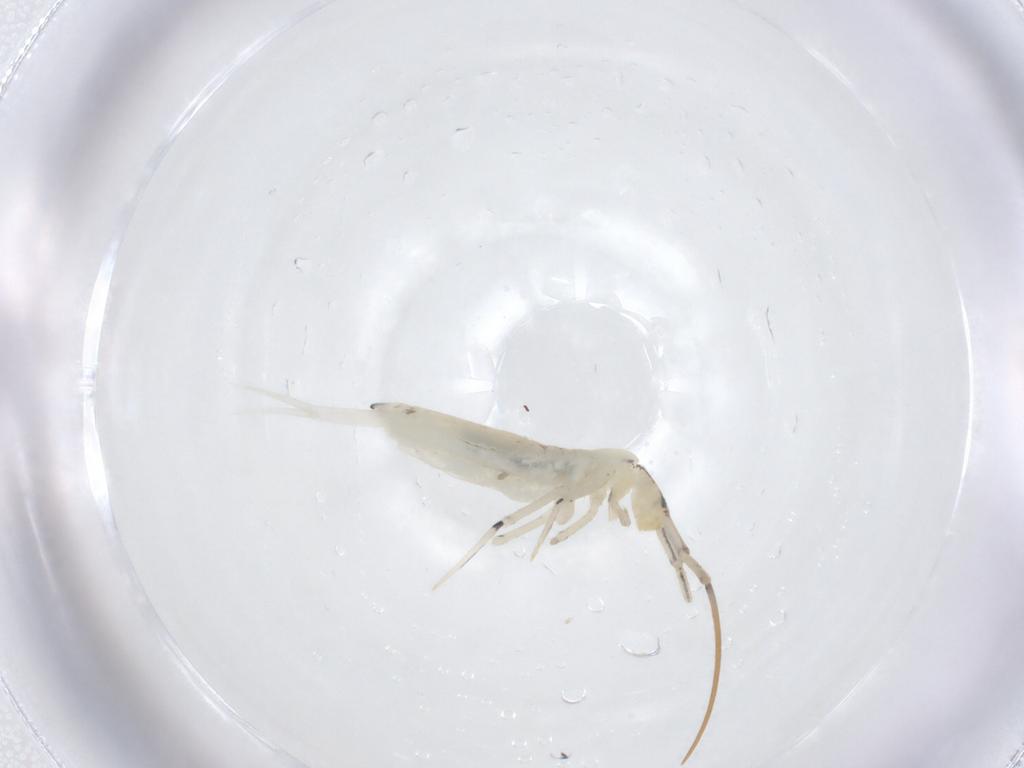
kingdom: Animalia
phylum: Arthropoda
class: Collembola
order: Entomobryomorpha
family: Entomobryidae
